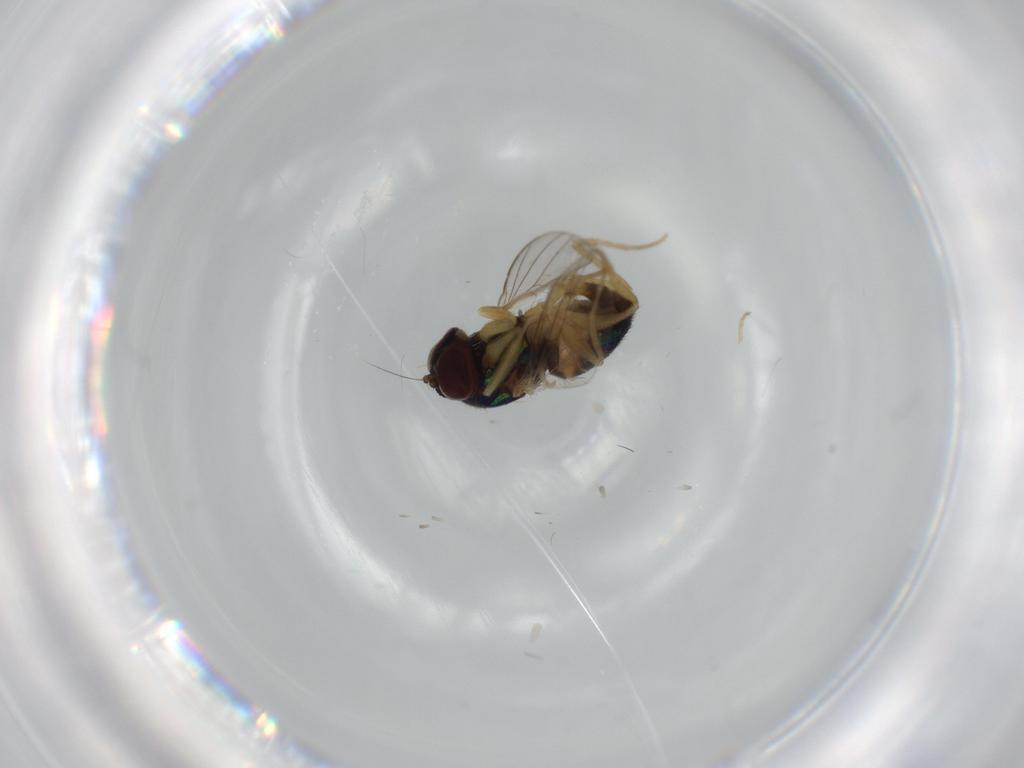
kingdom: Animalia
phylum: Arthropoda
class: Insecta
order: Diptera
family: Dolichopodidae
